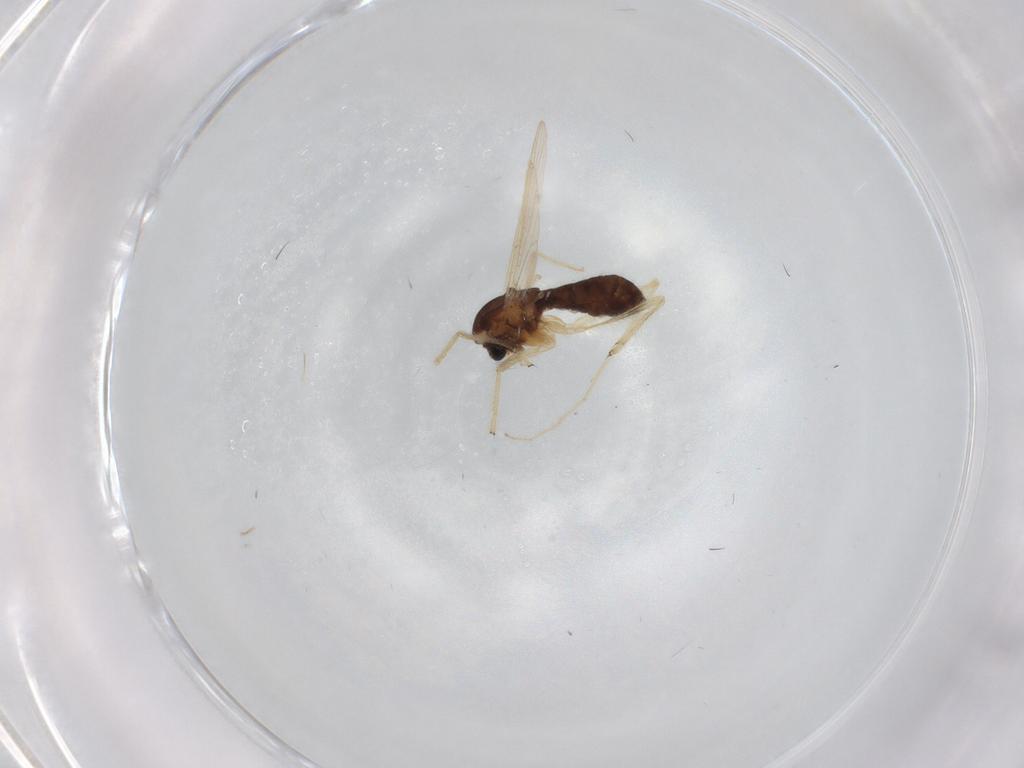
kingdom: Animalia
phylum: Arthropoda
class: Insecta
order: Diptera
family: Chironomidae
